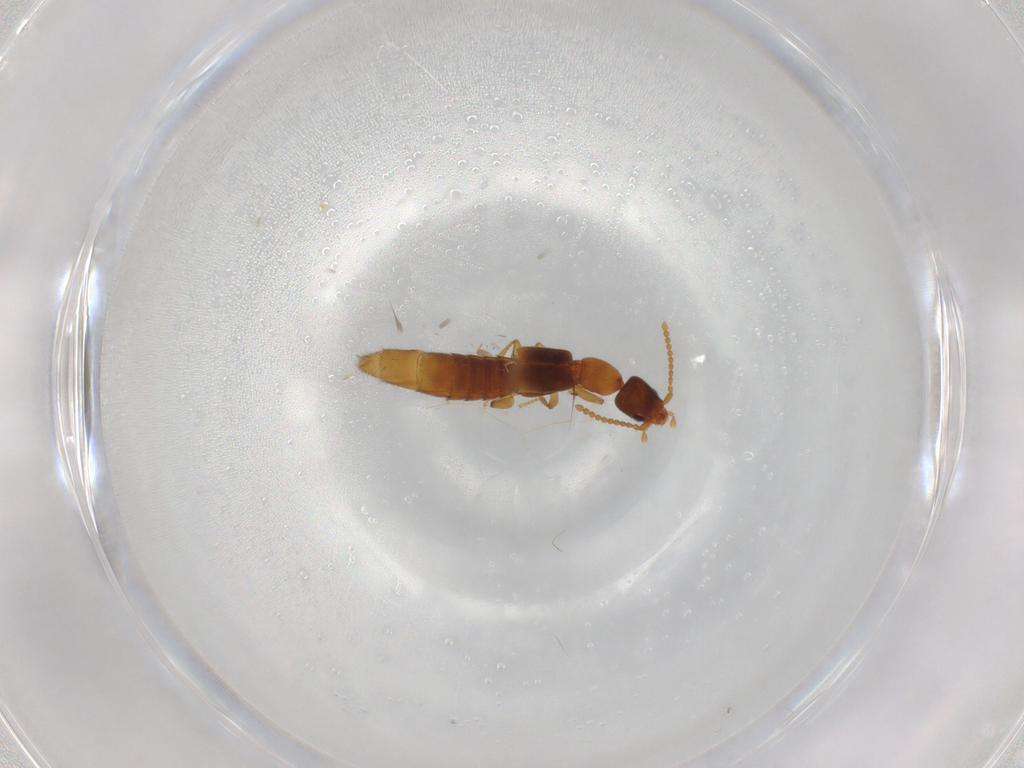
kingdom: Animalia
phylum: Arthropoda
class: Insecta
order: Coleoptera
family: Staphylinidae
